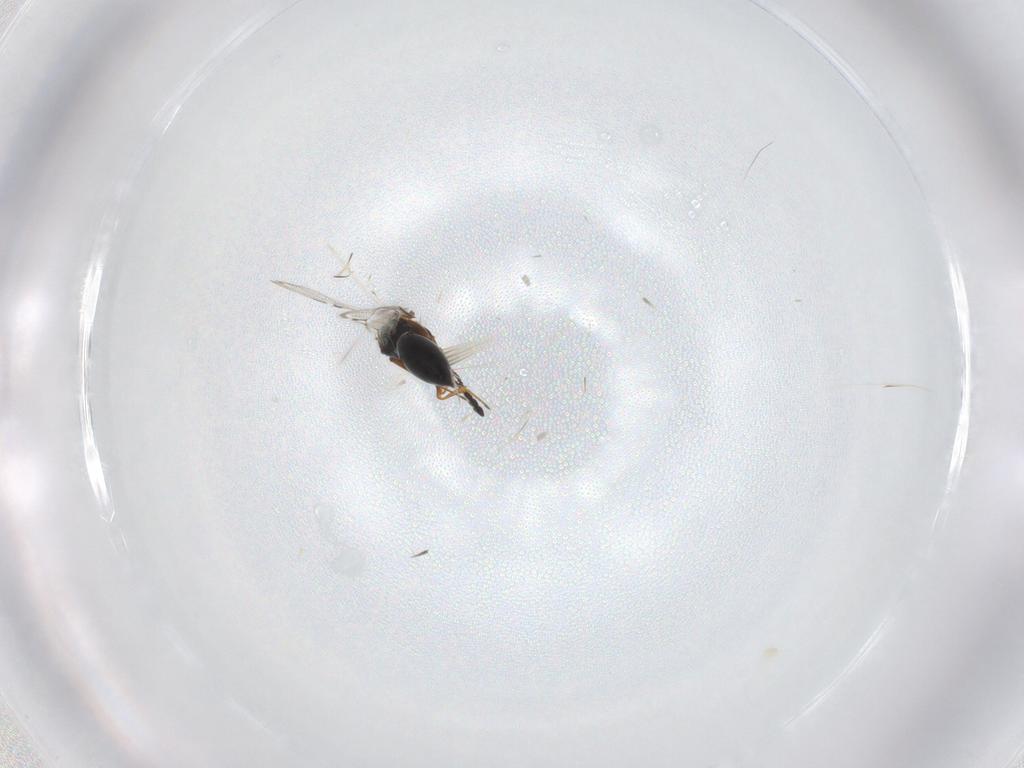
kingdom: Animalia
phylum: Arthropoda
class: Insecta
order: Hymenoptera
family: Figitidae
